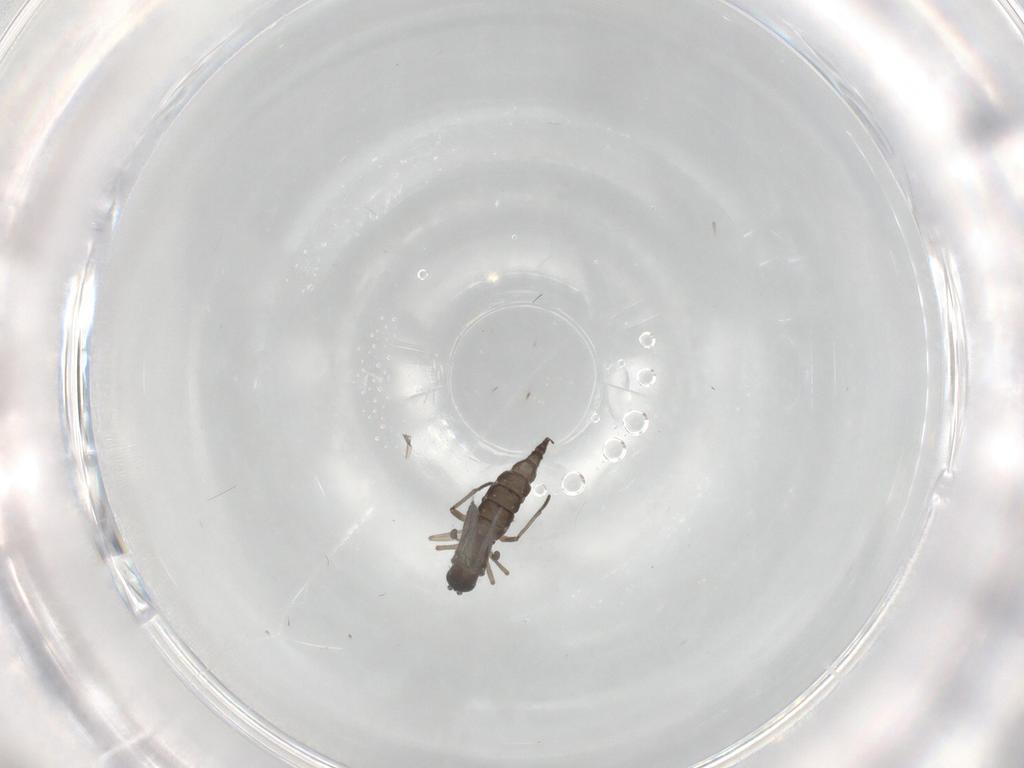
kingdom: Animalia
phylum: Arthropoda
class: Insecta
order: Diptera
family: Sciaridae
